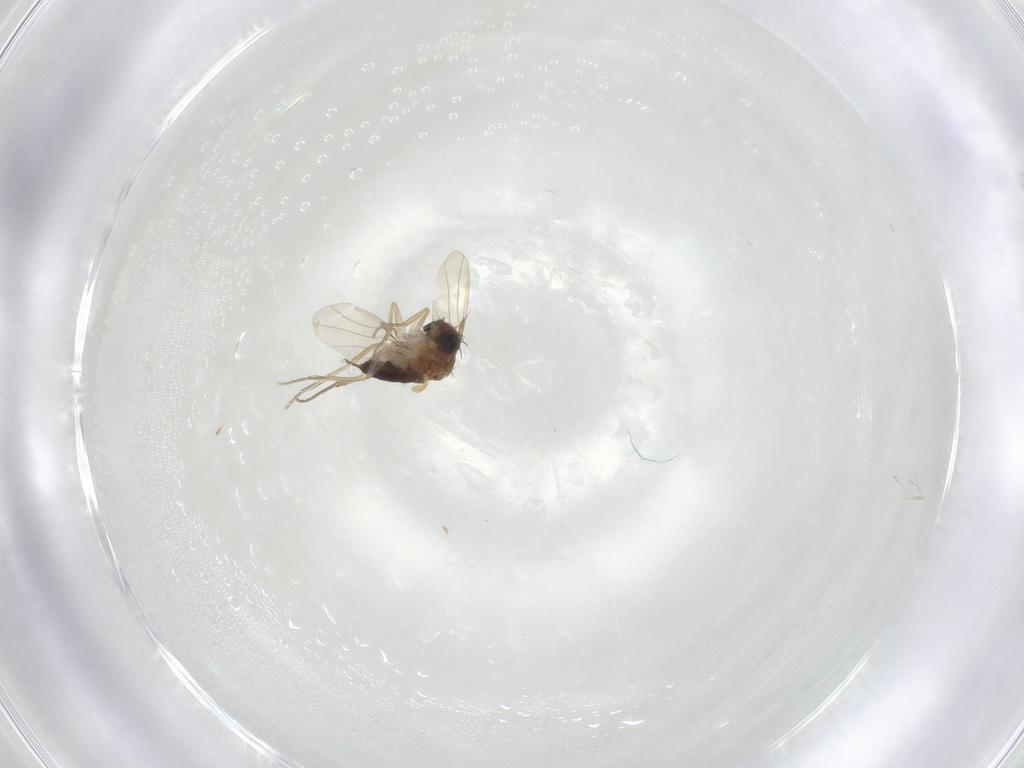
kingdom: Animalia
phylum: Arthropoda
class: Insecta
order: Diptera
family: Phoridae
